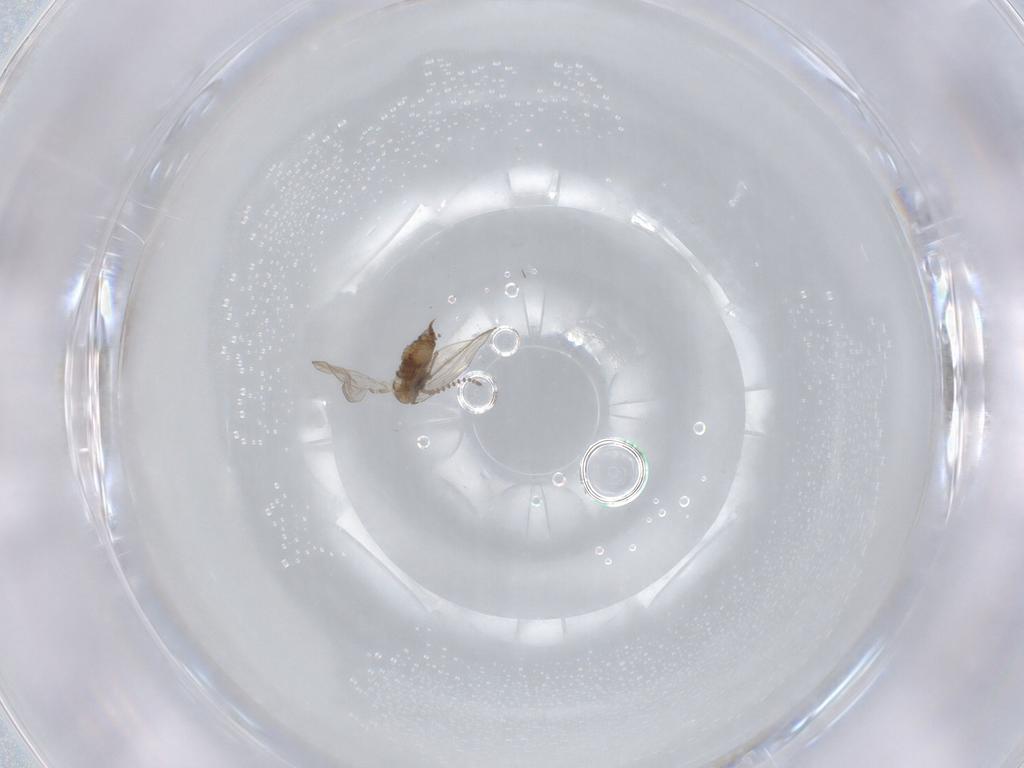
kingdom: Animalia
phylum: Arthropoda
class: Insecta
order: Diptera
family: Psychodidae
